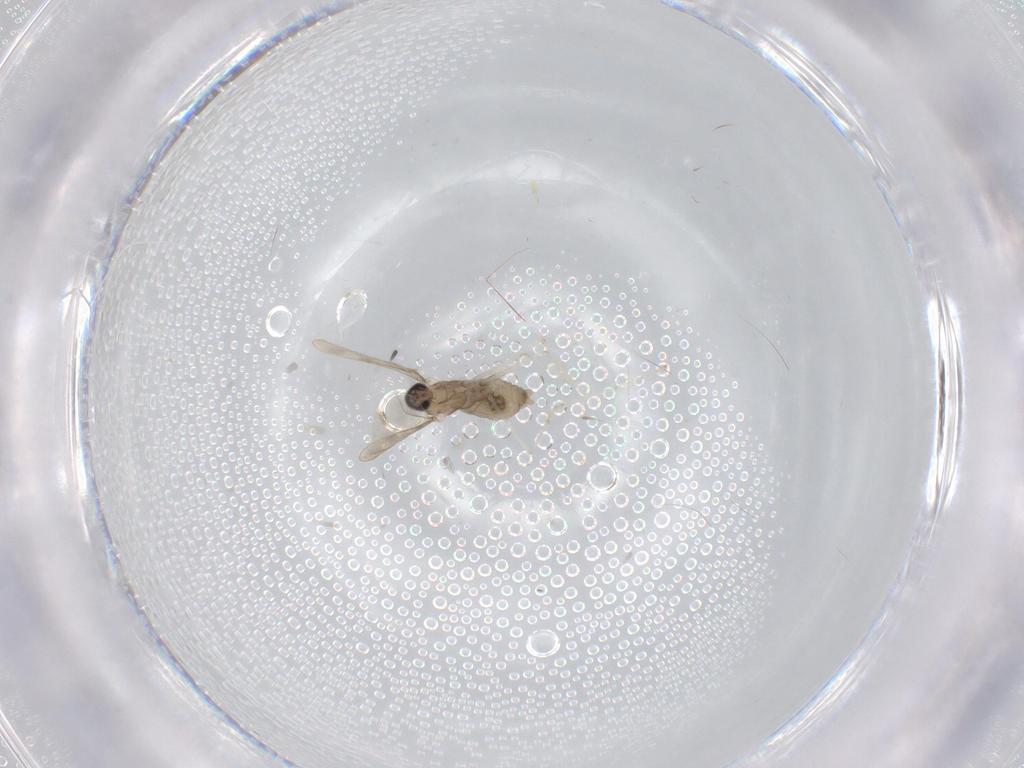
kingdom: Animalia
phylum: Arthropoda
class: Insecta
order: Diptera
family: Cecidomyiidae
